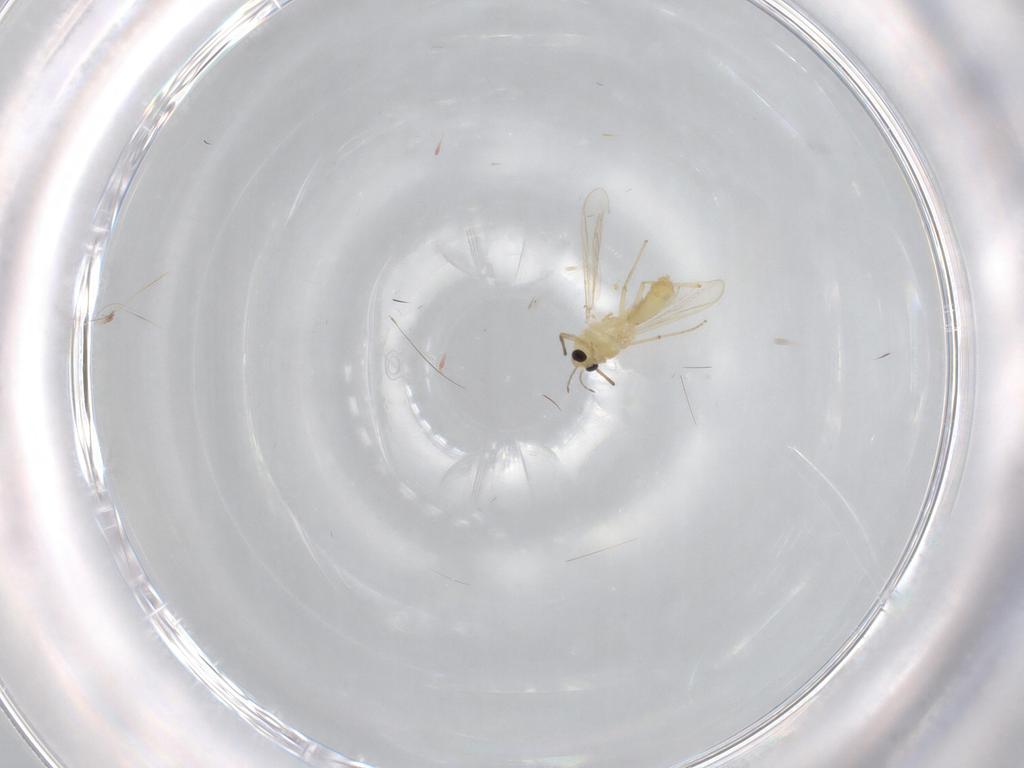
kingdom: Animalia
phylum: Arthropoda
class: Insecta
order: Diptera
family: Chironomidae
